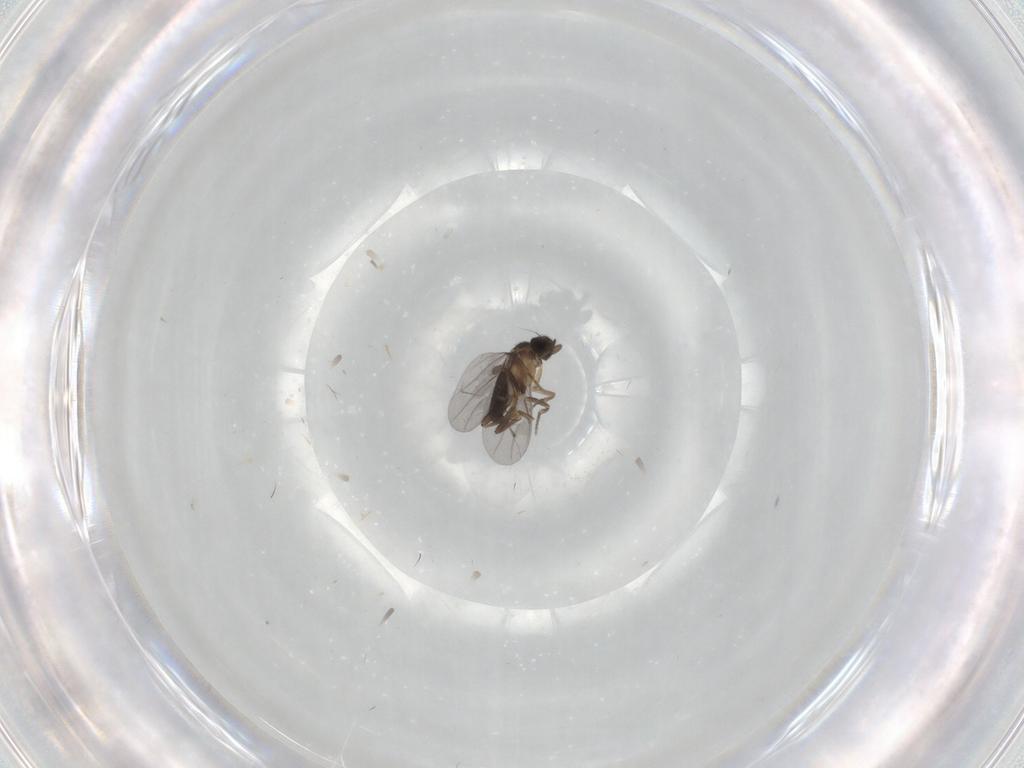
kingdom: Animalia
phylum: Arthropoda
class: Insecta
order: Diptera
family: Phoridae
